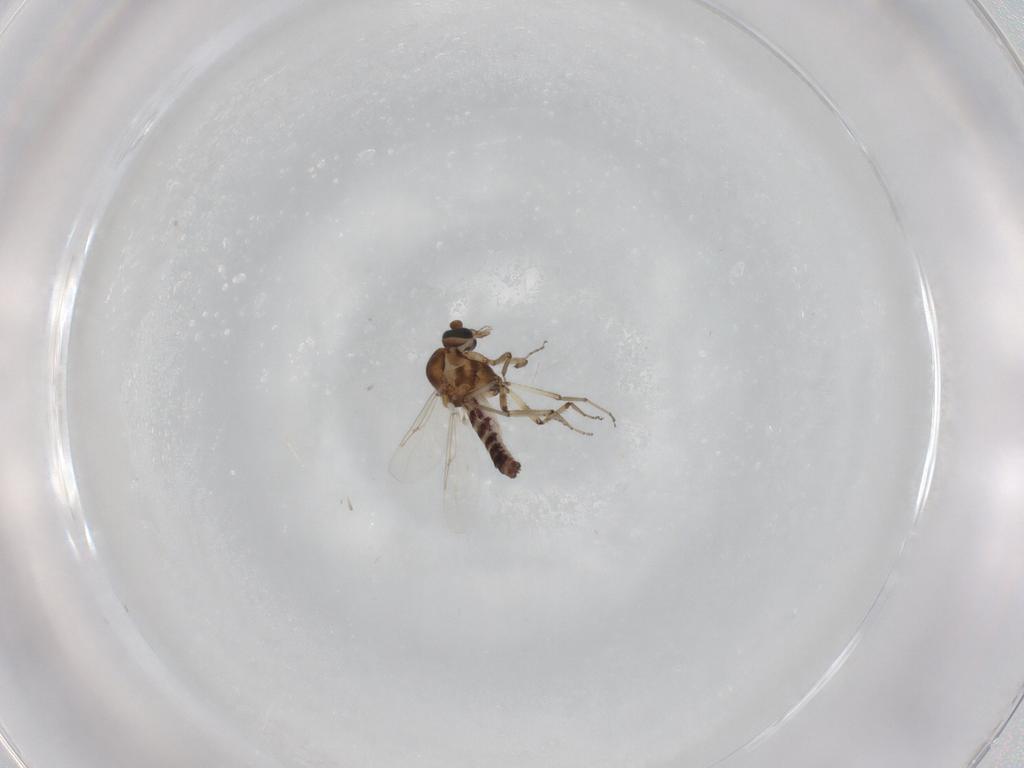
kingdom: Animalia
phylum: Arthropoda
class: Insecta
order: Diptera
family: Ceratopogonidae
